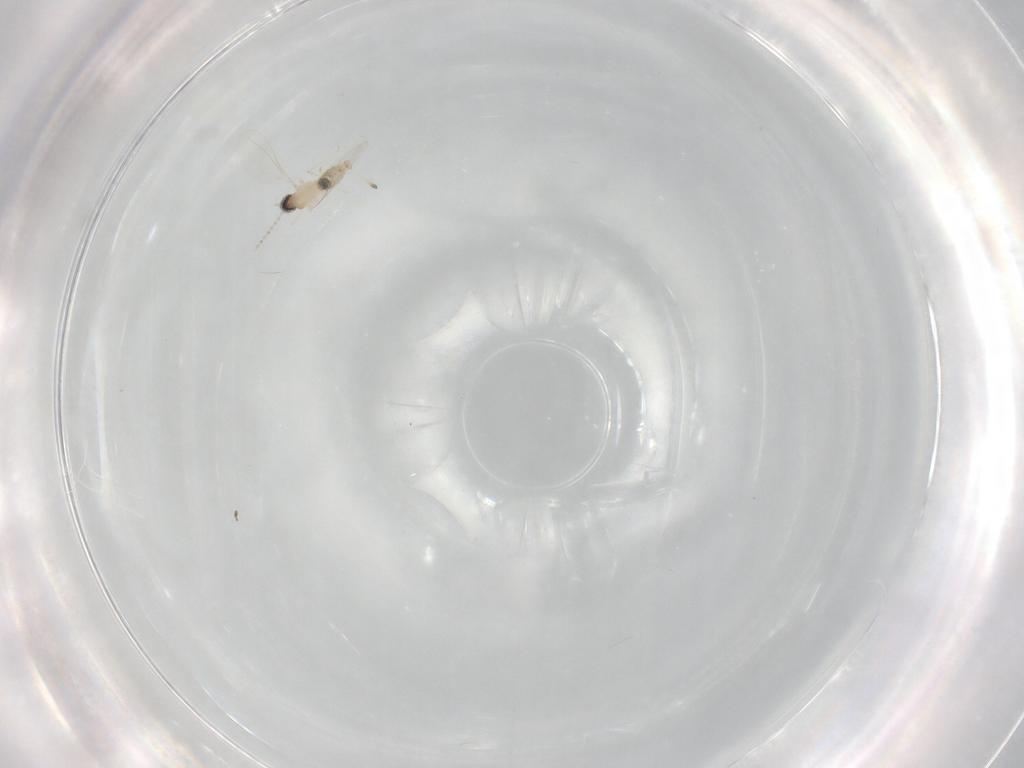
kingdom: Animalia
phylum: Arthropoda
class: Insecta
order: Diptera
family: Cecidomyiidae
